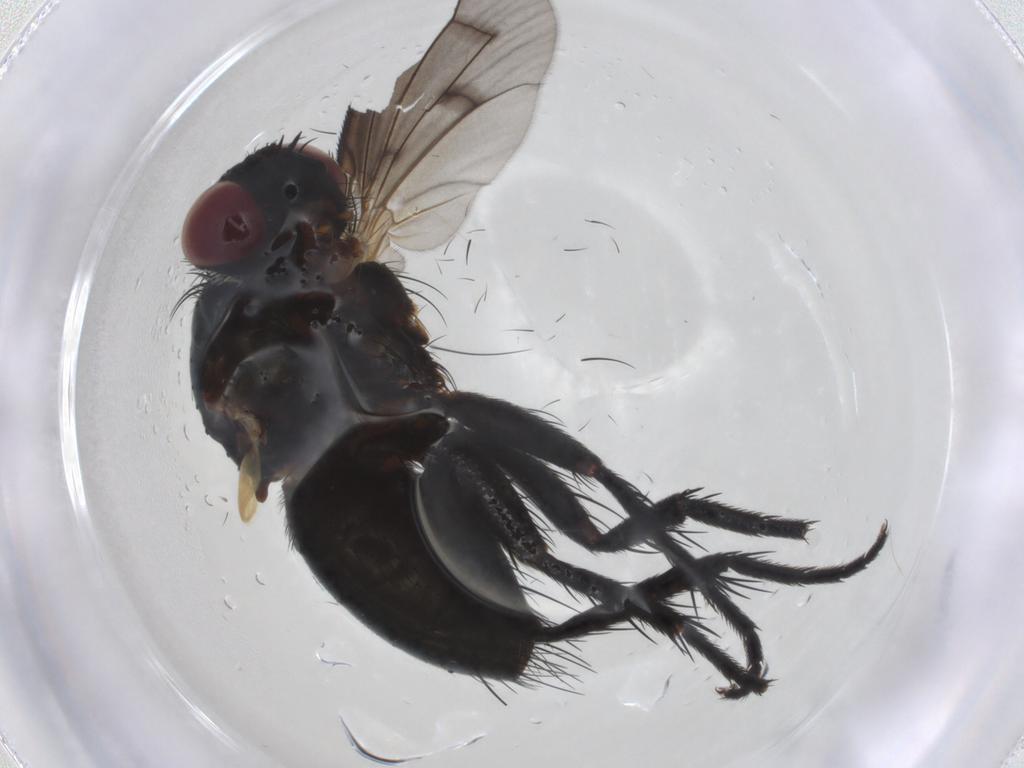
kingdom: Animalia
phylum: Arthropoda
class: Insecta
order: Diptera
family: Tachinidae
